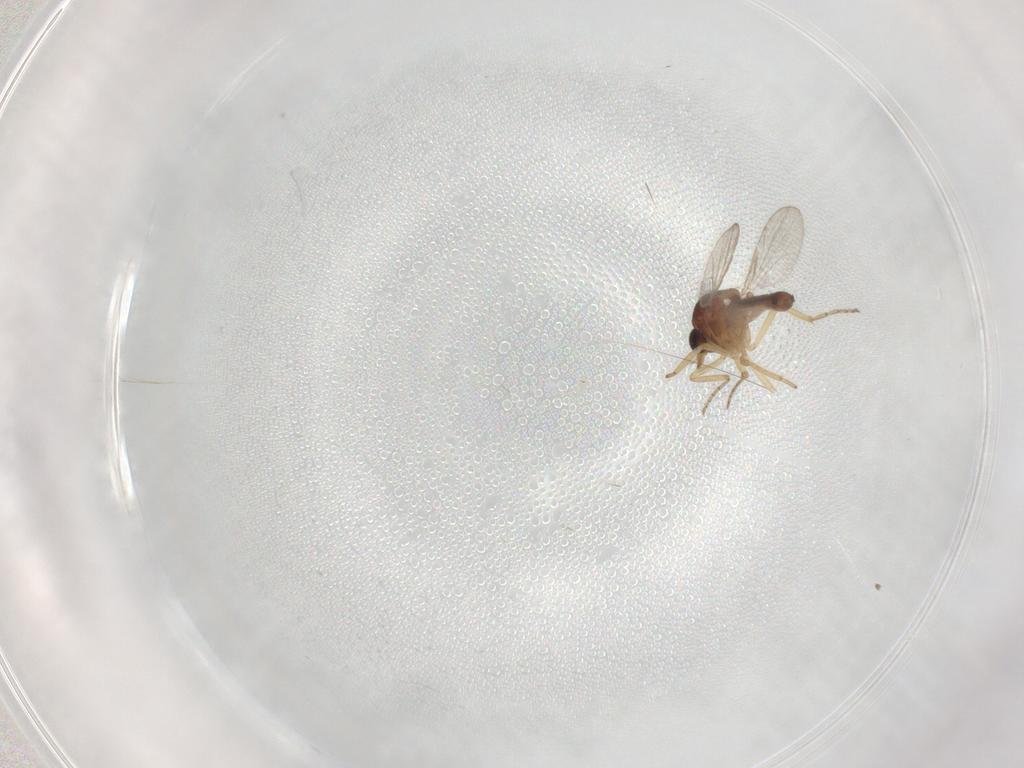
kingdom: Animalia
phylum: Arthropoda
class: Insecta
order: Diptera
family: Ceratopogonidae
